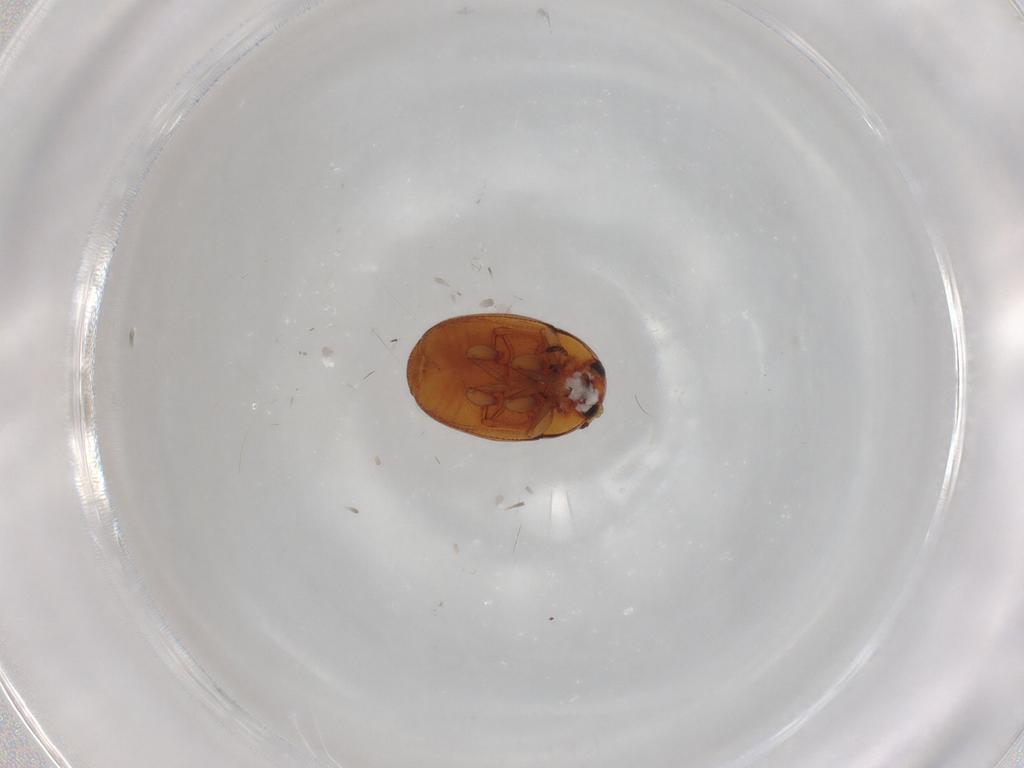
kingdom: Animalia
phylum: Arthropoda
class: Insecta
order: Coleoptera
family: Chrysomelidae
